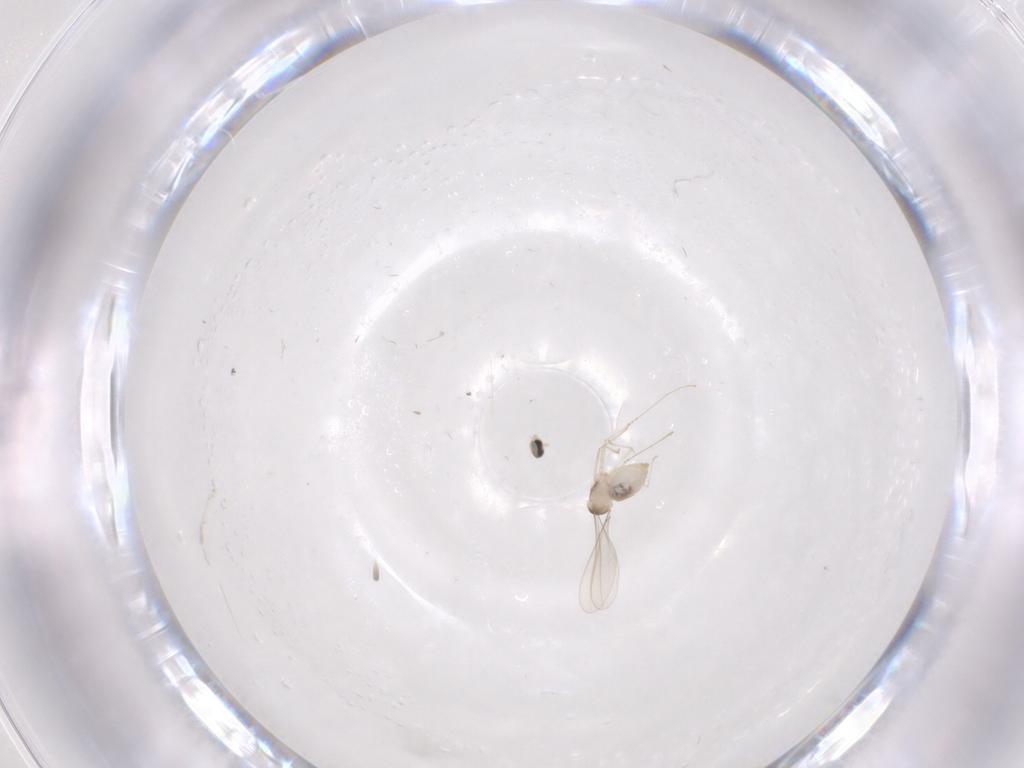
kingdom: Animalia
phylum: Arthropoda
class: Insecta
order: Diptera
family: Cecidomyiidae
